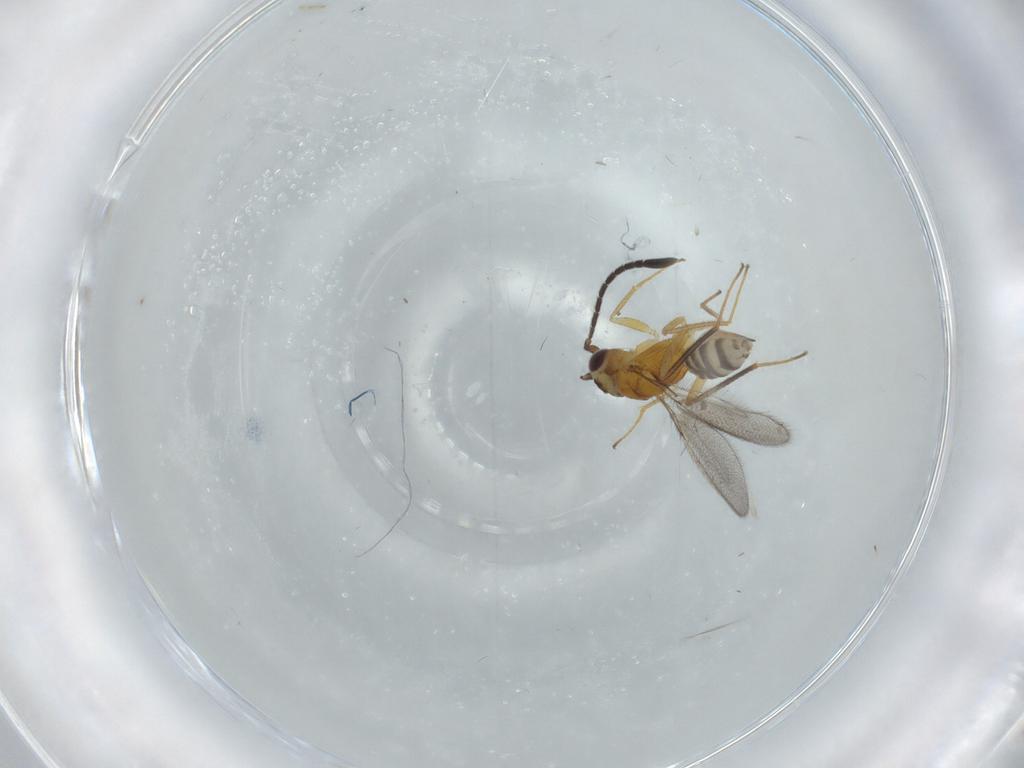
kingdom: Animalia
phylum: Arthropoda
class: Insecta
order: Hymenoptera
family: Mymaridae
